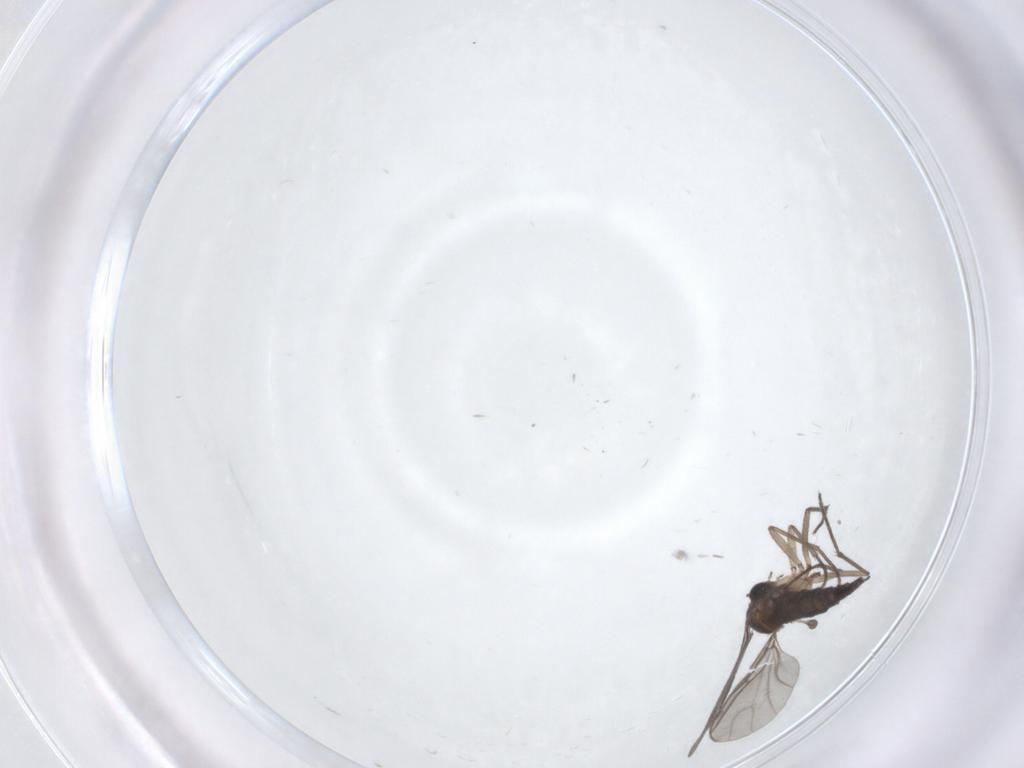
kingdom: Animalia
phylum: Arthropoda
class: Insecta
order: Diptera
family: Sciaridae
